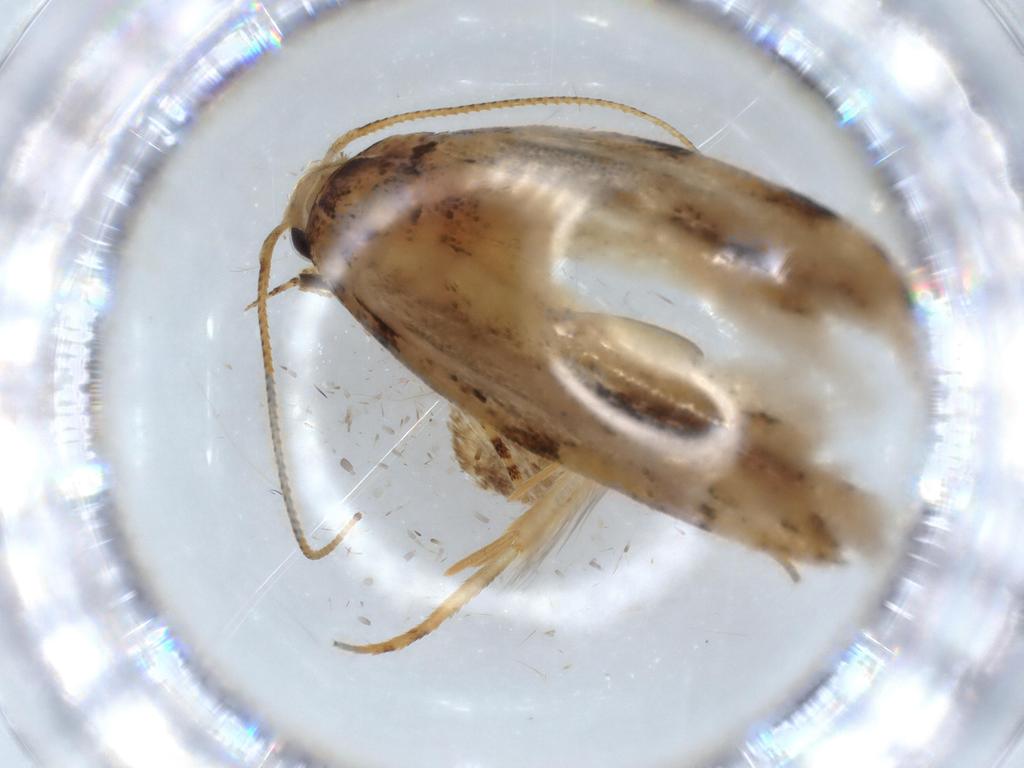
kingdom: Animalia
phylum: Arthropoda
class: Insecta
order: Lepidoptera
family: Autostichidae
